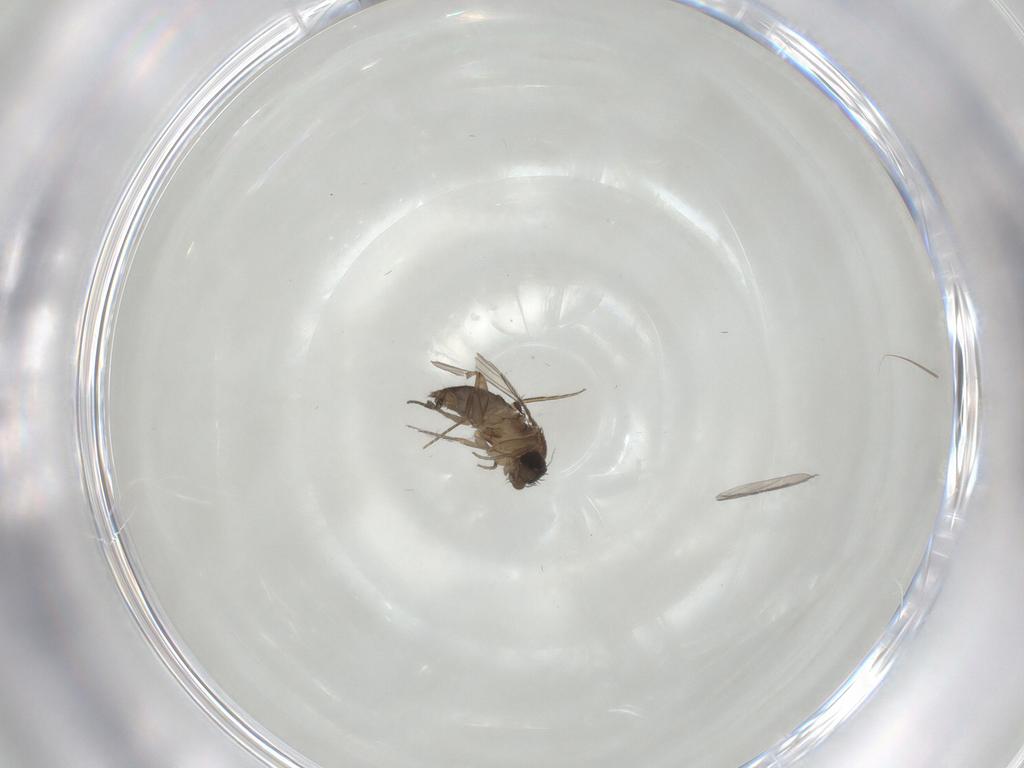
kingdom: Animalia
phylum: Arthropoda
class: Insecta
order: Diptera
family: Phoridae
